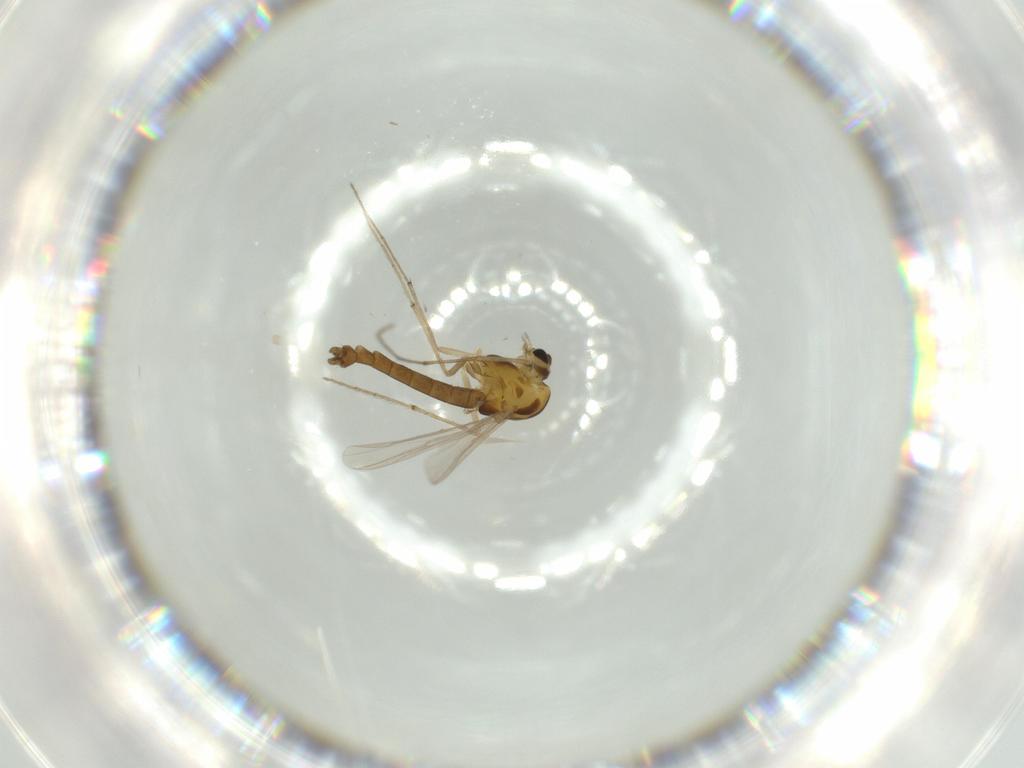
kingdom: Animalia
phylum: Arthropoda
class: Insecta
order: Diptera
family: Chironomidae
